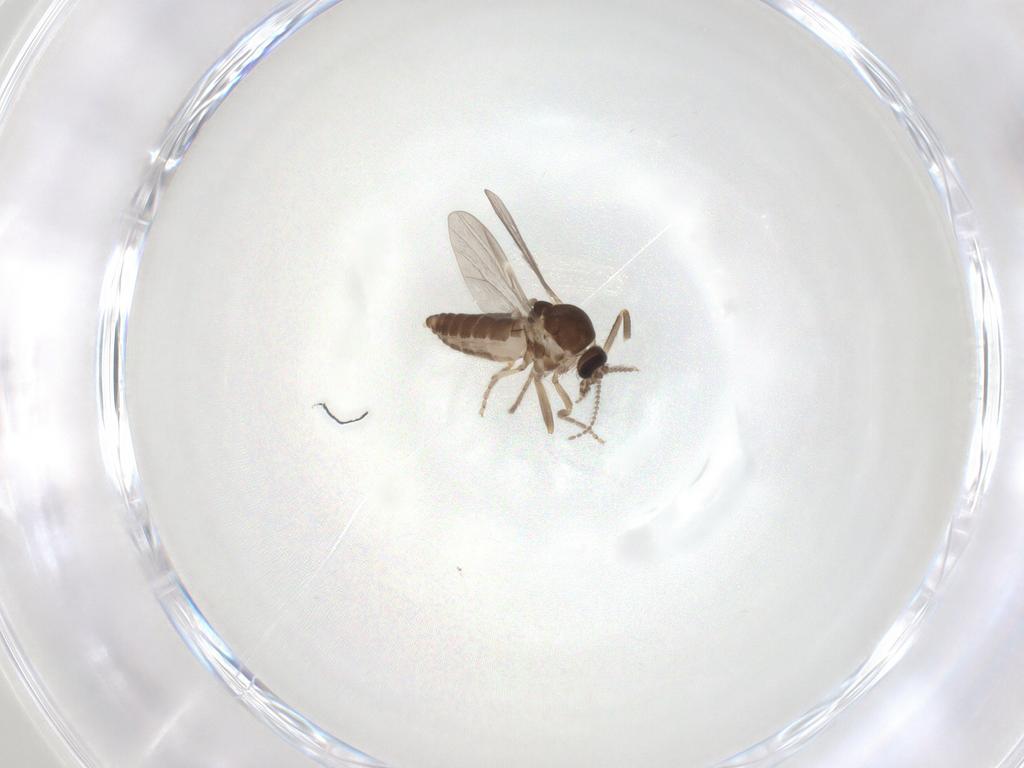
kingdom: Animalia
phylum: Arthropoda
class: Insecta
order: Diptera
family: Ceratopogonidae
